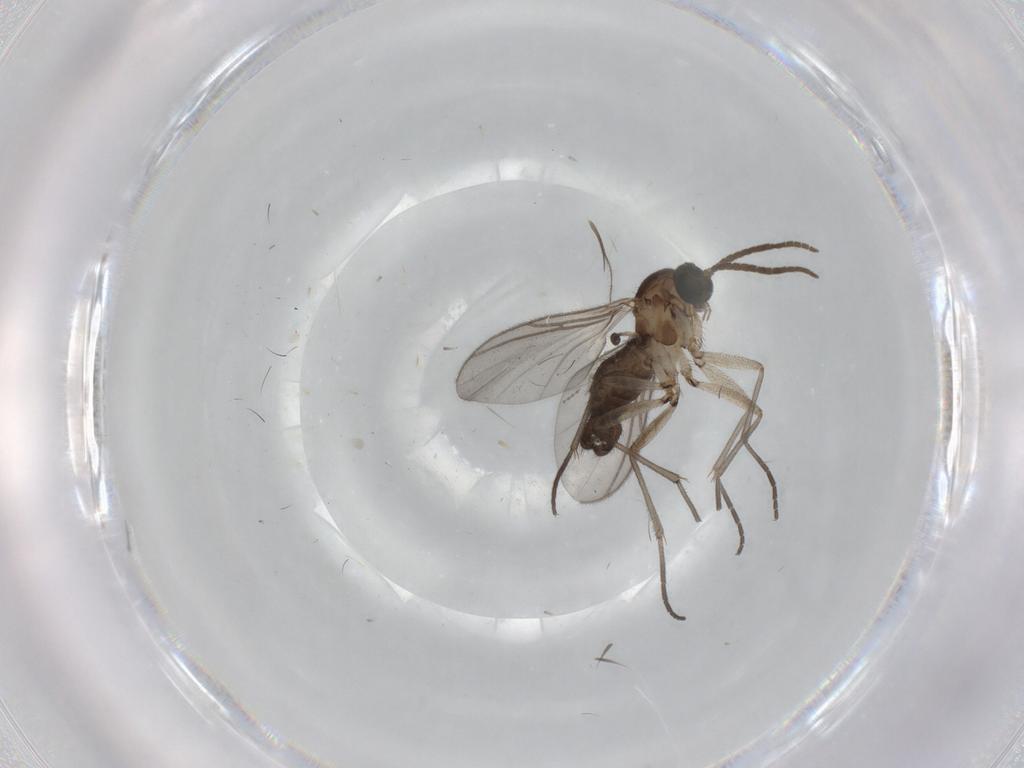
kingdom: Animalia
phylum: Arthropoda
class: Insecta
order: Diptera
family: Sciaridae
